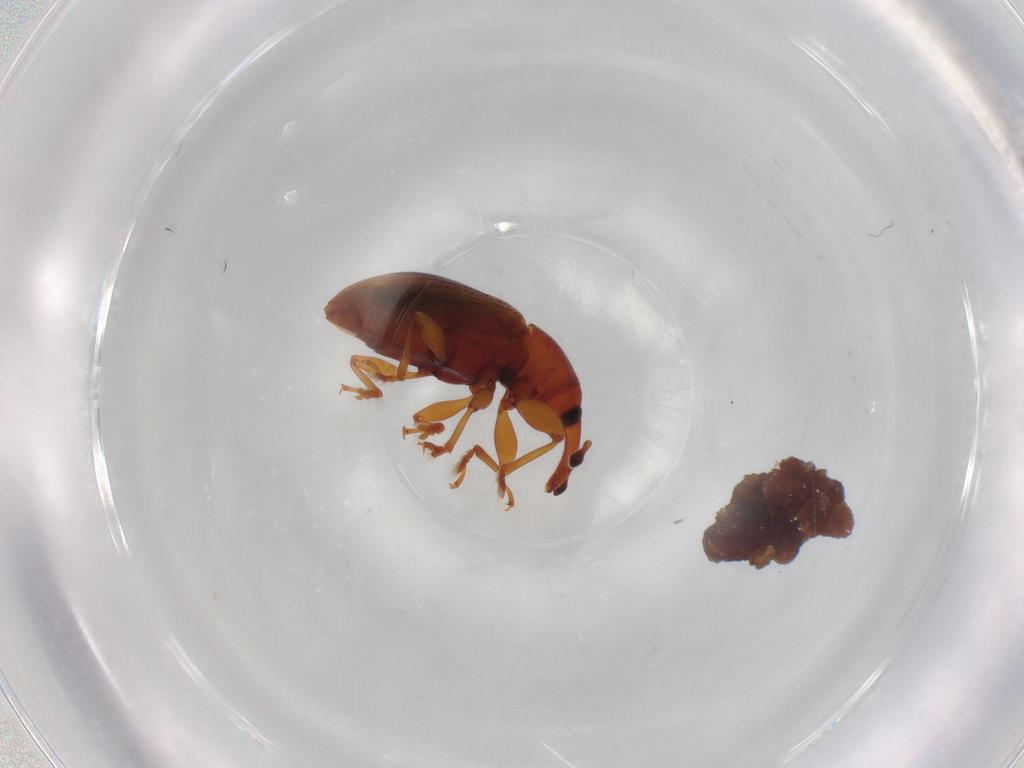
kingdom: Animalia
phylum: Arthropoda
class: Insecta
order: Coleoptera
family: Curculionidae
